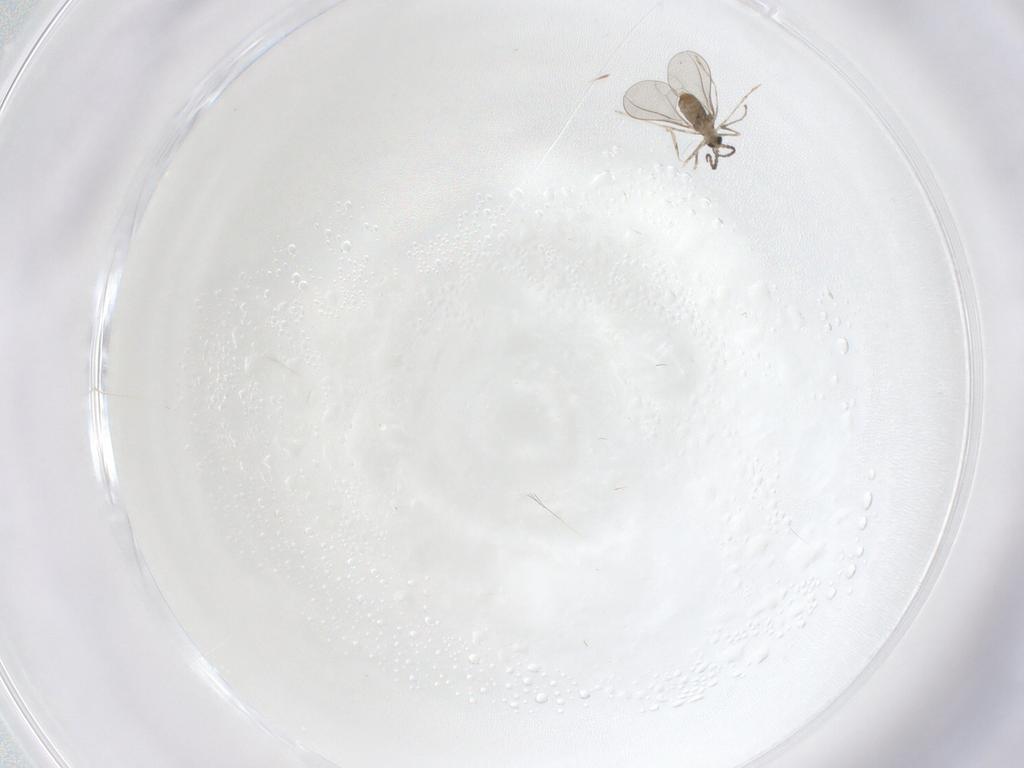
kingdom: Animalia
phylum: Arthropoda
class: Insecta
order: Diptera
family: Cecidomyiidae
